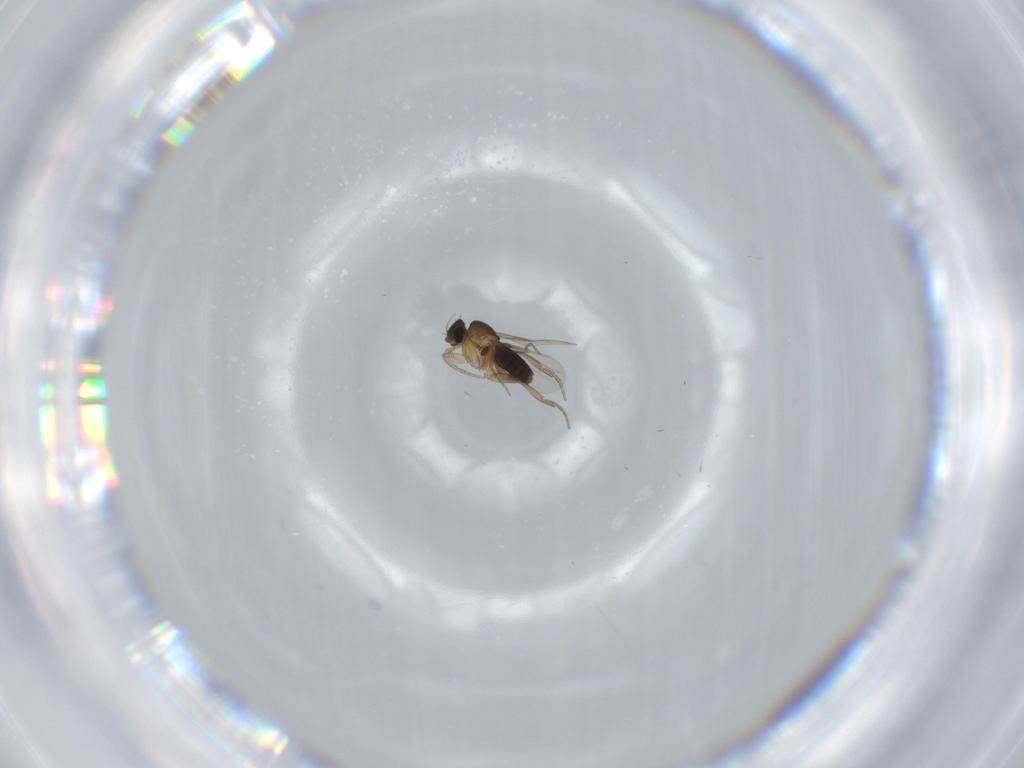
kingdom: Animalia
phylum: Arthropoda
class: Insecta
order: Diptera
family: Phoridae
